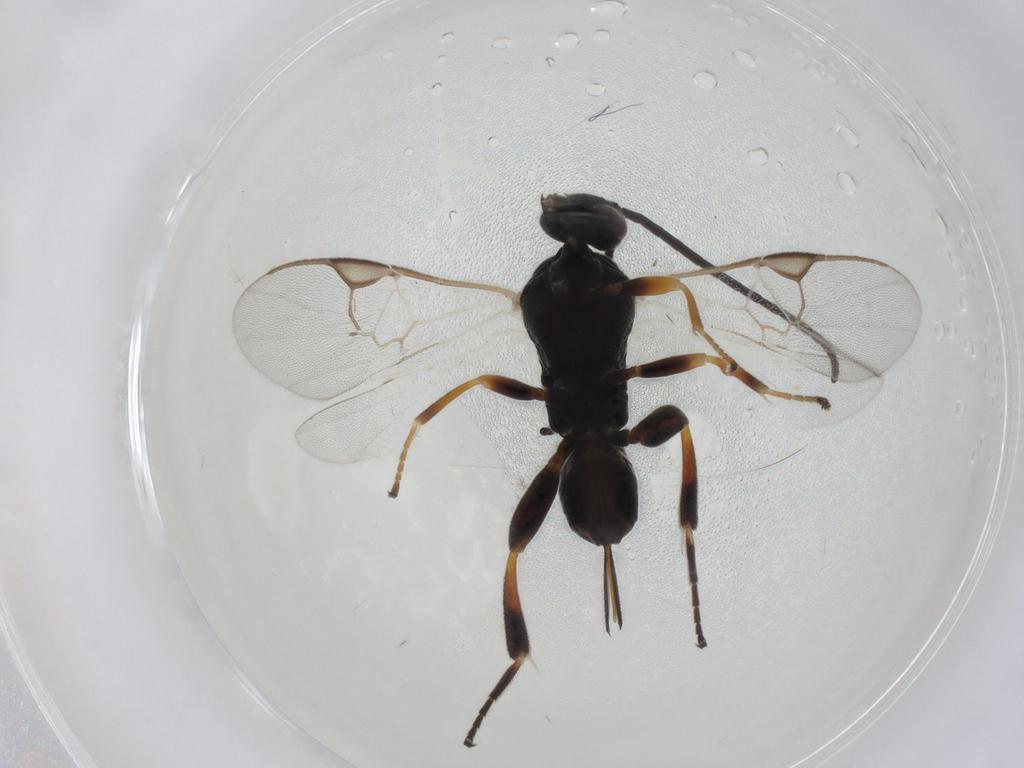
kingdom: Animalia
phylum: Arthropoda
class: Insecta
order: Hymenoptera
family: Braconidae
